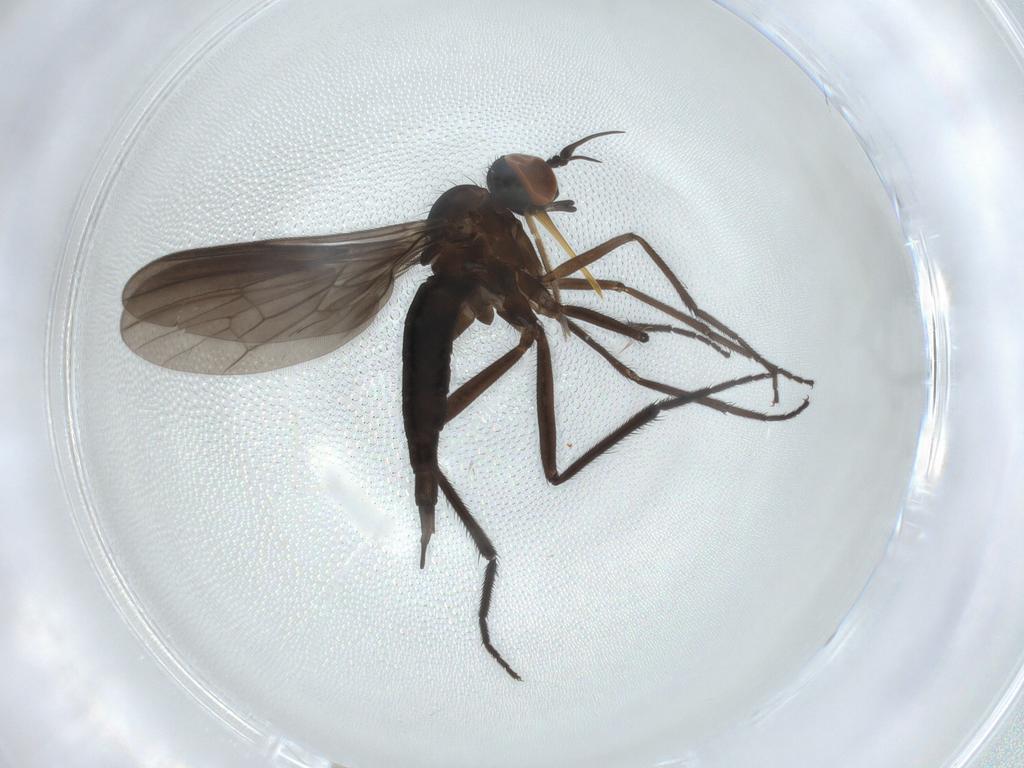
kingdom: Animalia
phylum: Arthropoda
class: Insecta
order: Diptera
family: Empididae
